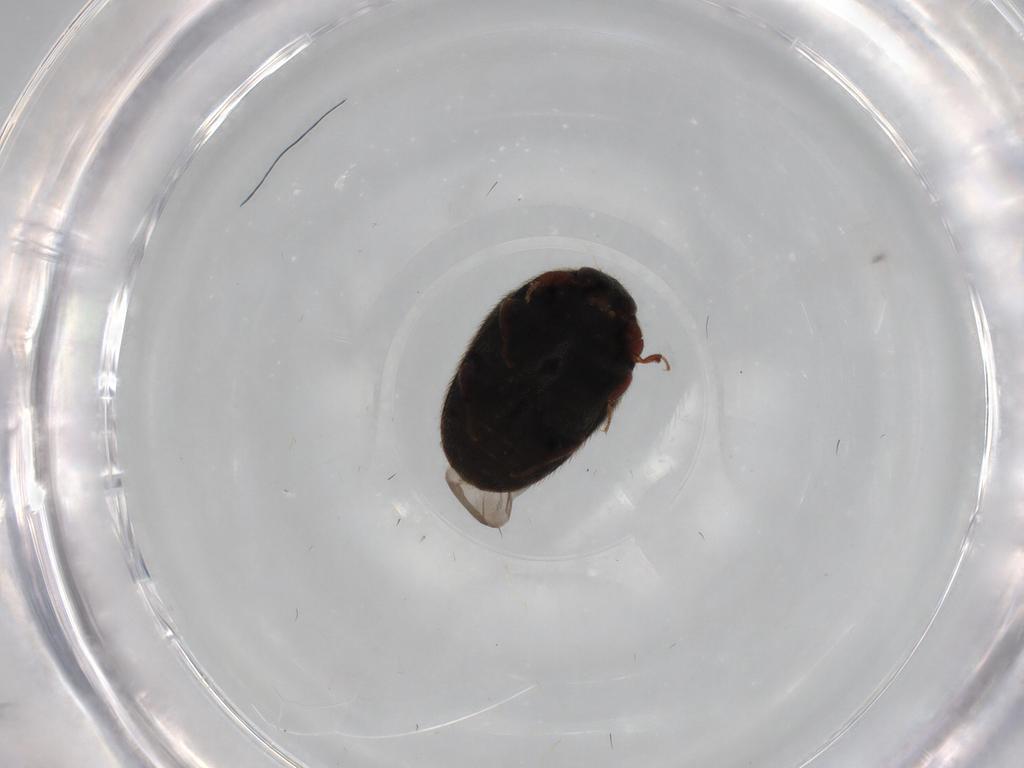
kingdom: Animalia
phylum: Arthropoda
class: Insecta
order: Coleoptera
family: Dermestidae
